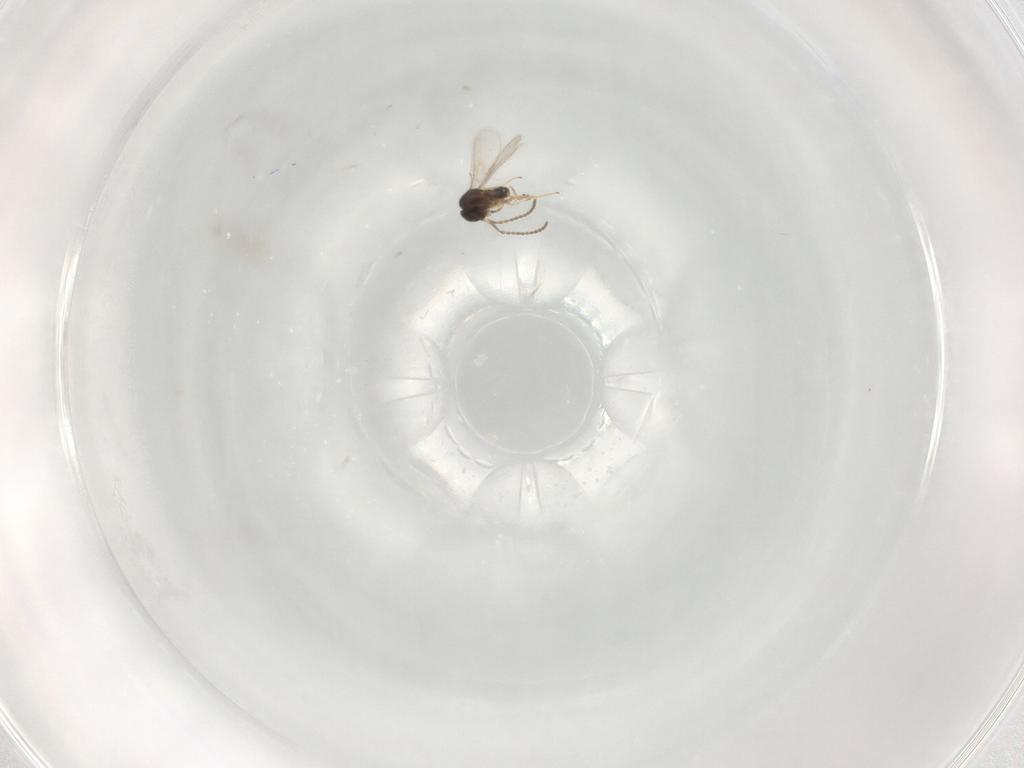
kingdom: Animalia
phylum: Arthropoda
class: Insecta
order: Hymenoptera
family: Scelionidae
